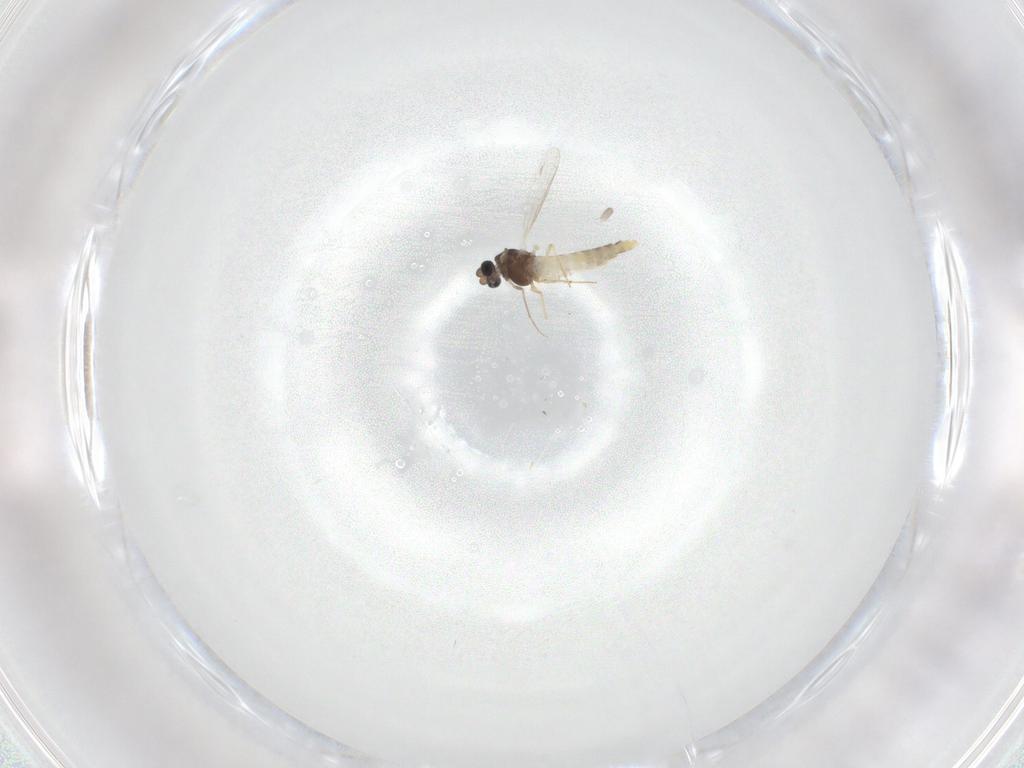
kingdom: Animalia
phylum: Arthropoda
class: Insecta
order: Diptera
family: Chironomidae
